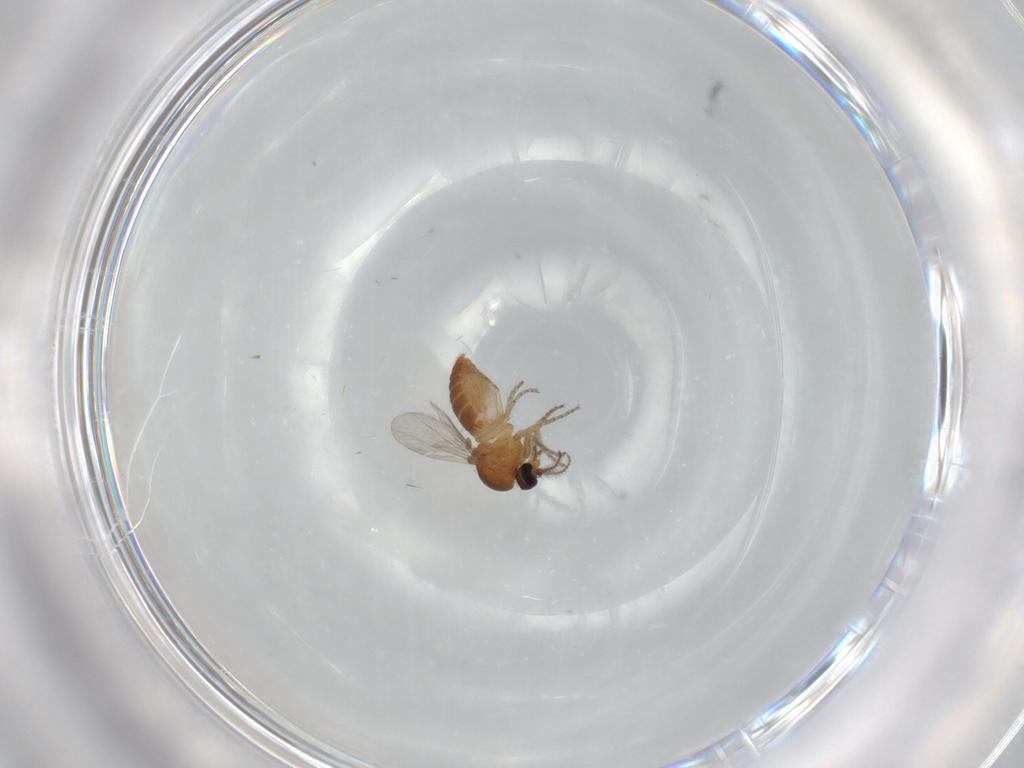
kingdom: Animalia
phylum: Arthropoda
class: Insecta
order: Diptera
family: Ceratopogonidae
